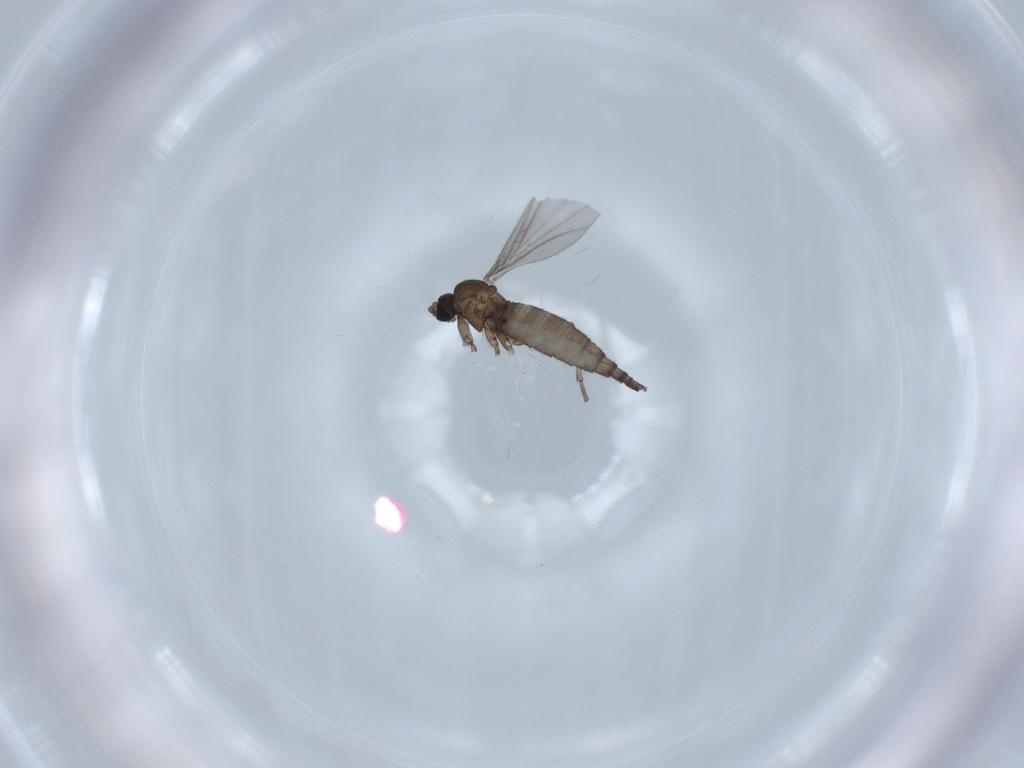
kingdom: Animalia
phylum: Arthropoda
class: Insecta
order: Diptera
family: Sciaridae
